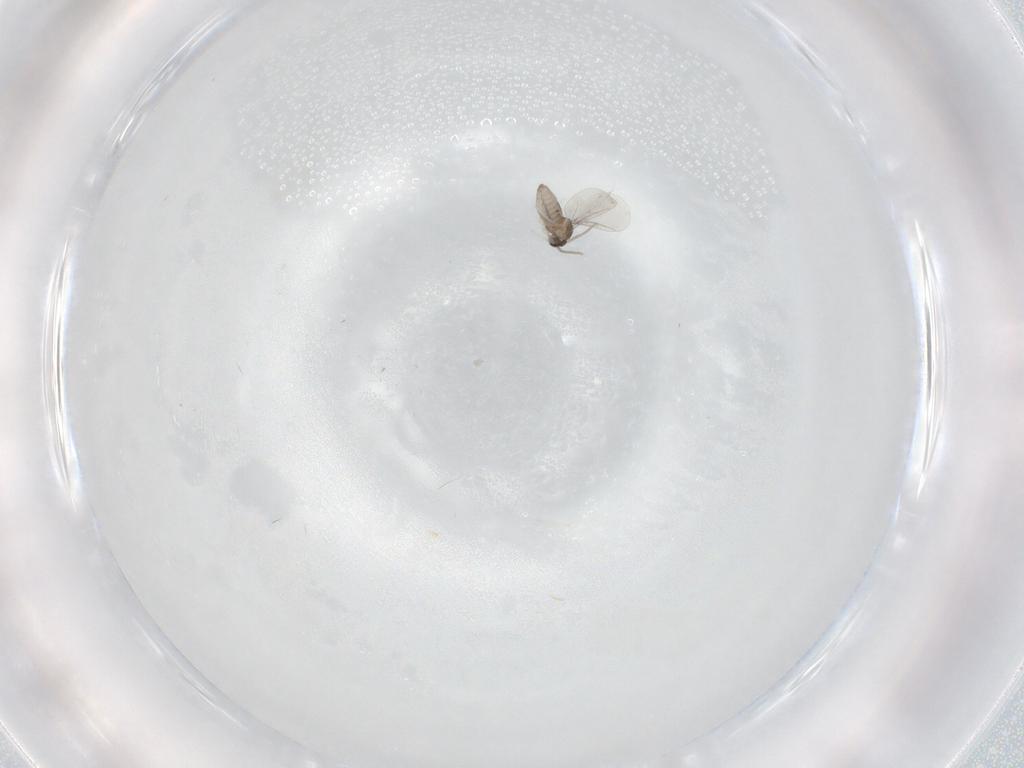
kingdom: Animalia
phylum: Arthropoda
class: Insecta
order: Diptera
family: Cecidomyiidae
